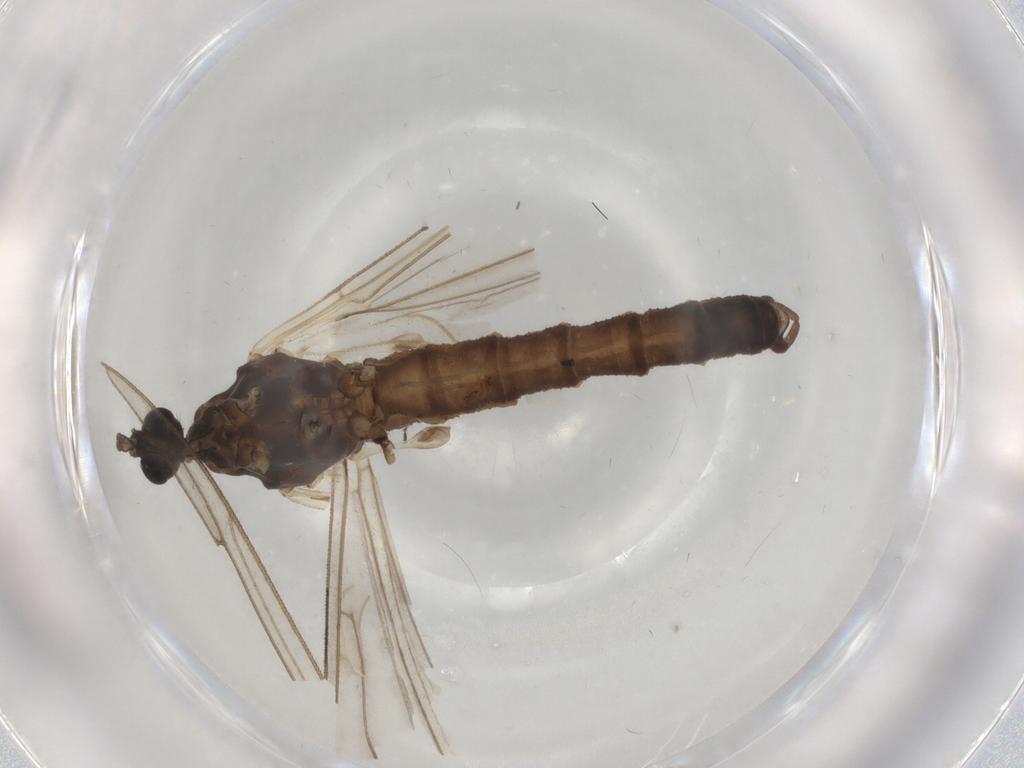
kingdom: Animalia
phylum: Arthropoda
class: Insecta
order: Diptera
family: Trichoceridae
